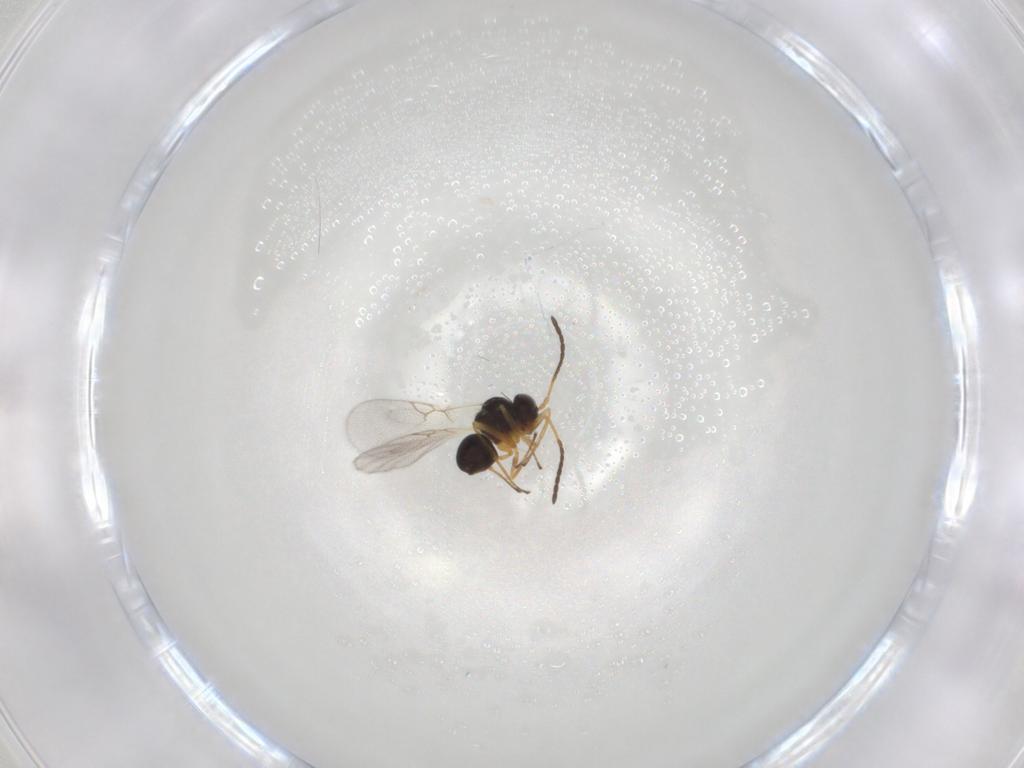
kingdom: Animalia
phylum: Arthropoda
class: Insecta
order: Hymenoptera
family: Figitidae
